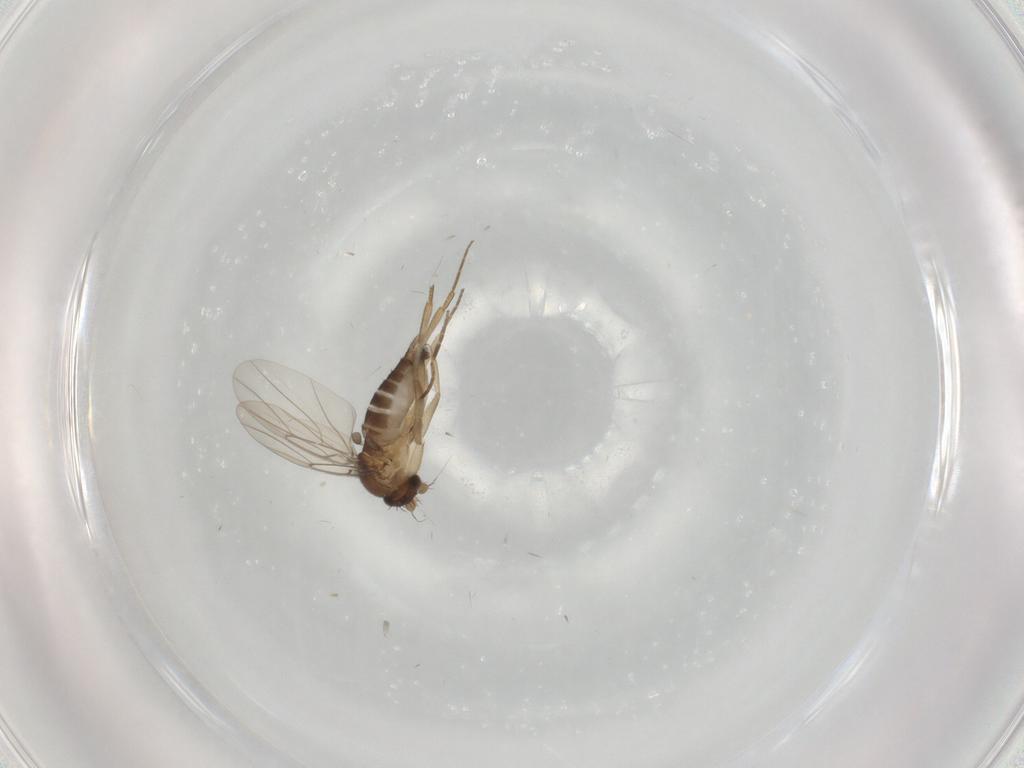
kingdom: Animalia
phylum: Arthropoda
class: Insecta
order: Diptera
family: Phoridae
